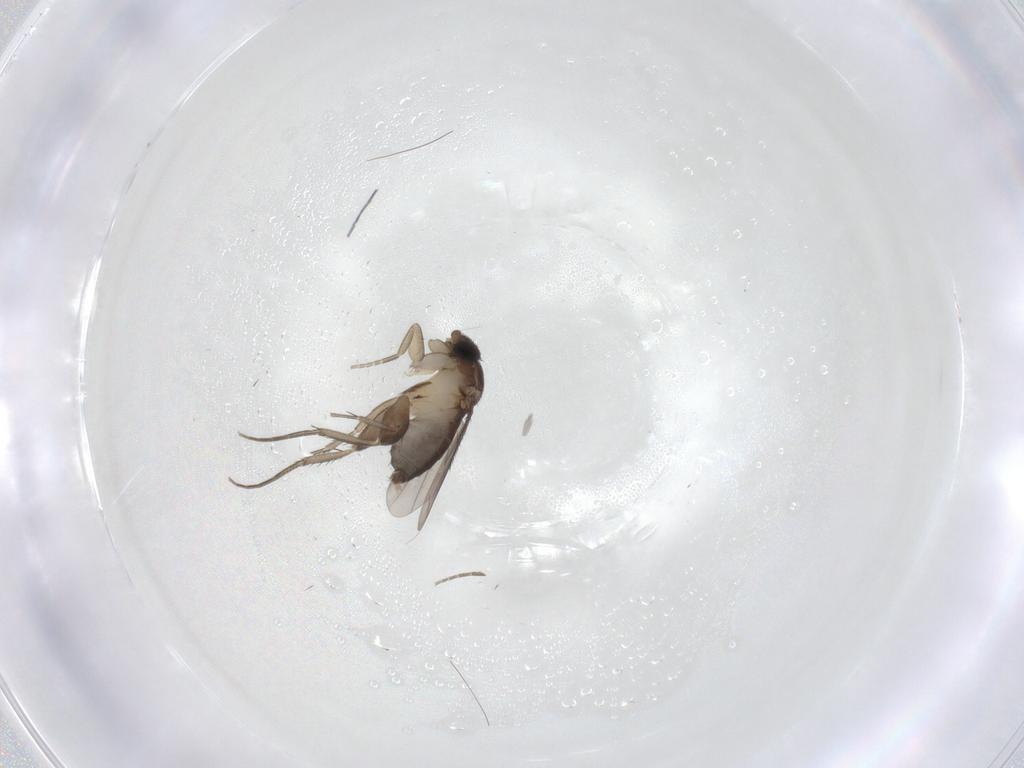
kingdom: Animalia
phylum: Arthropoda
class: Insecta
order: Diptera
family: Phoridae
